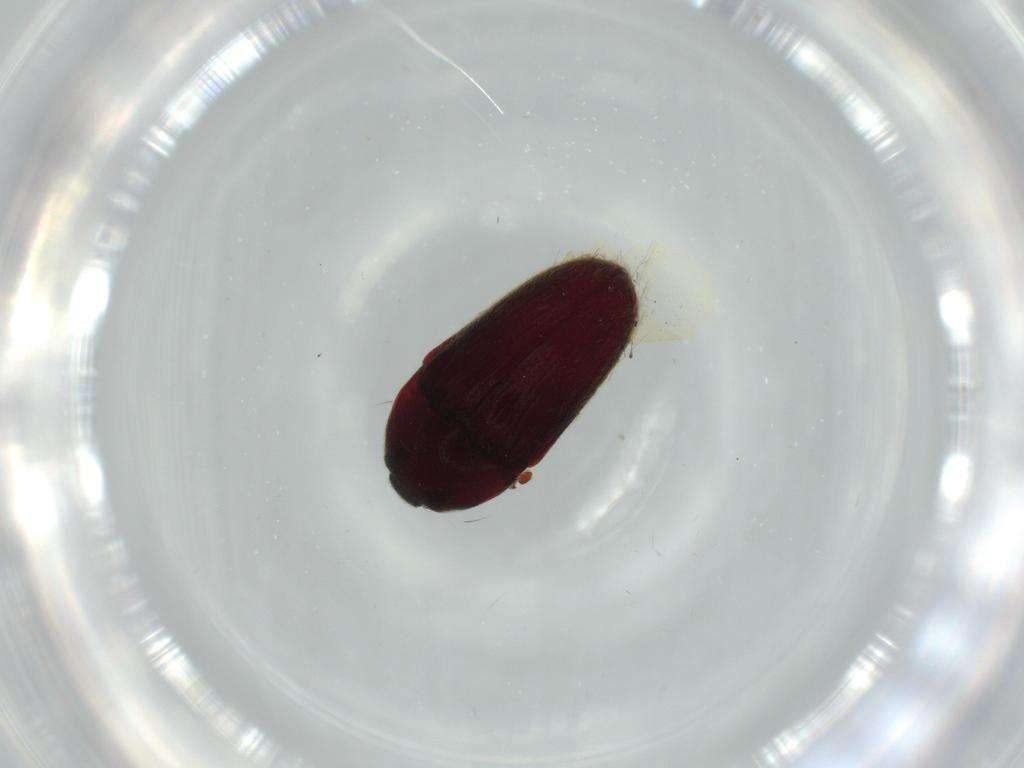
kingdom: Animalia
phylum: Arthropoda
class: Insecta
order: Coleoptera
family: Throscidae
